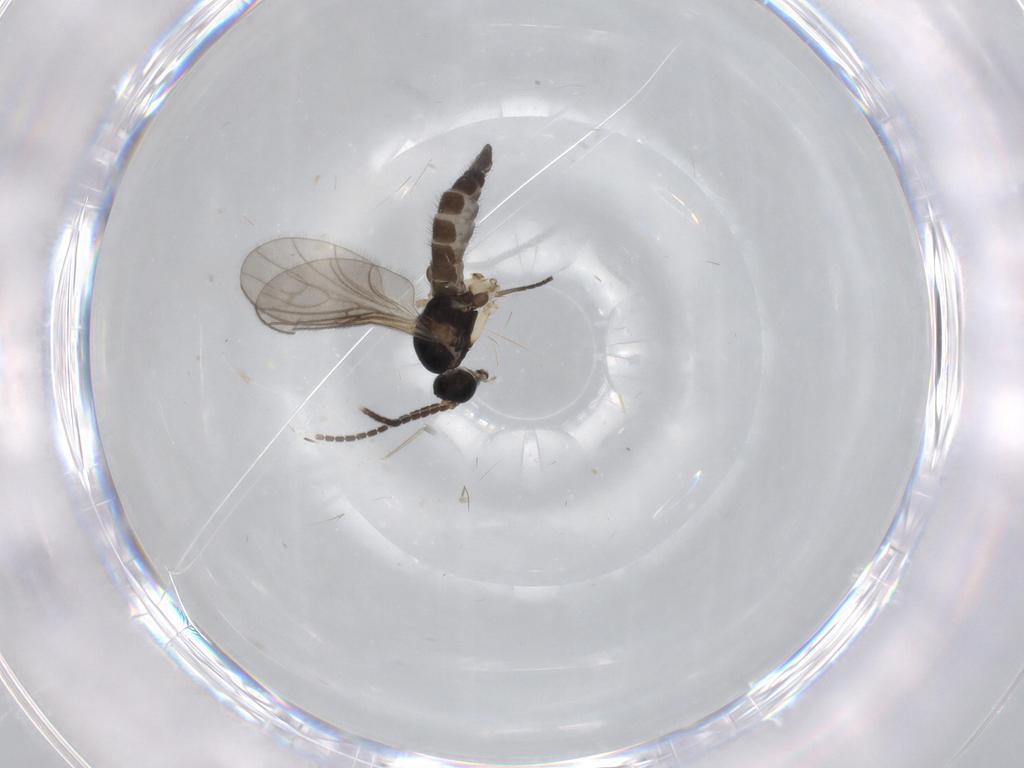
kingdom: Animalia
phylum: Arthropoda
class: Insecta
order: Diptera
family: Sciaridae
